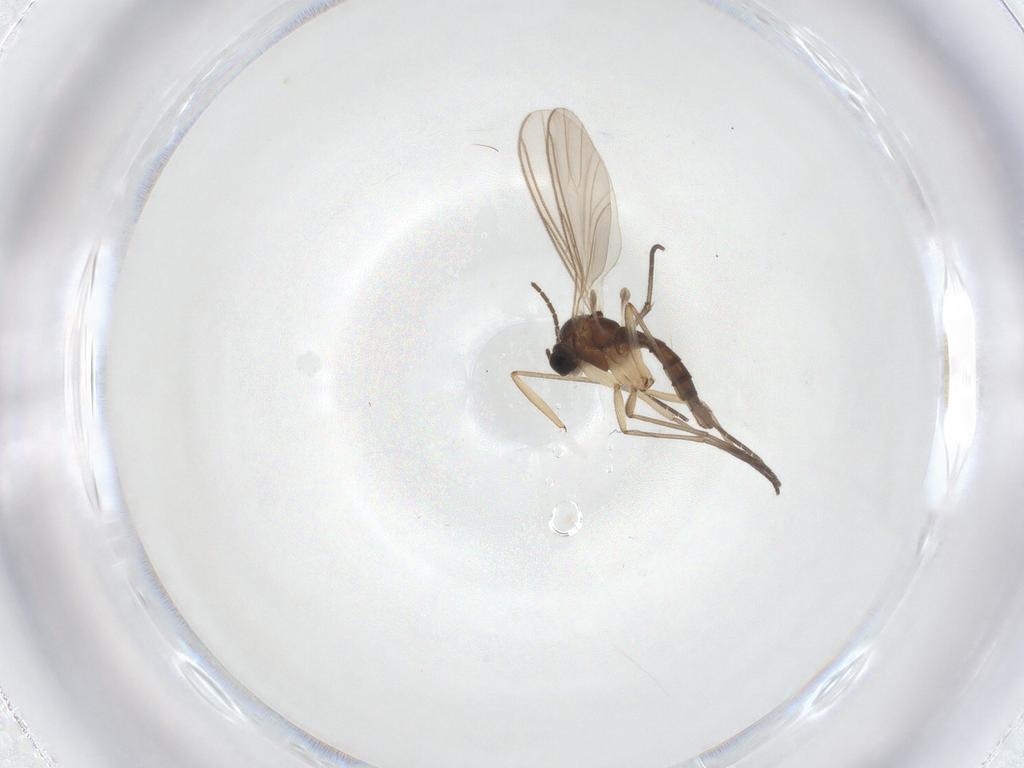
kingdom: Animalia
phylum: Arthropoda
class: Insecta
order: Diptera
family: Sciaridae
